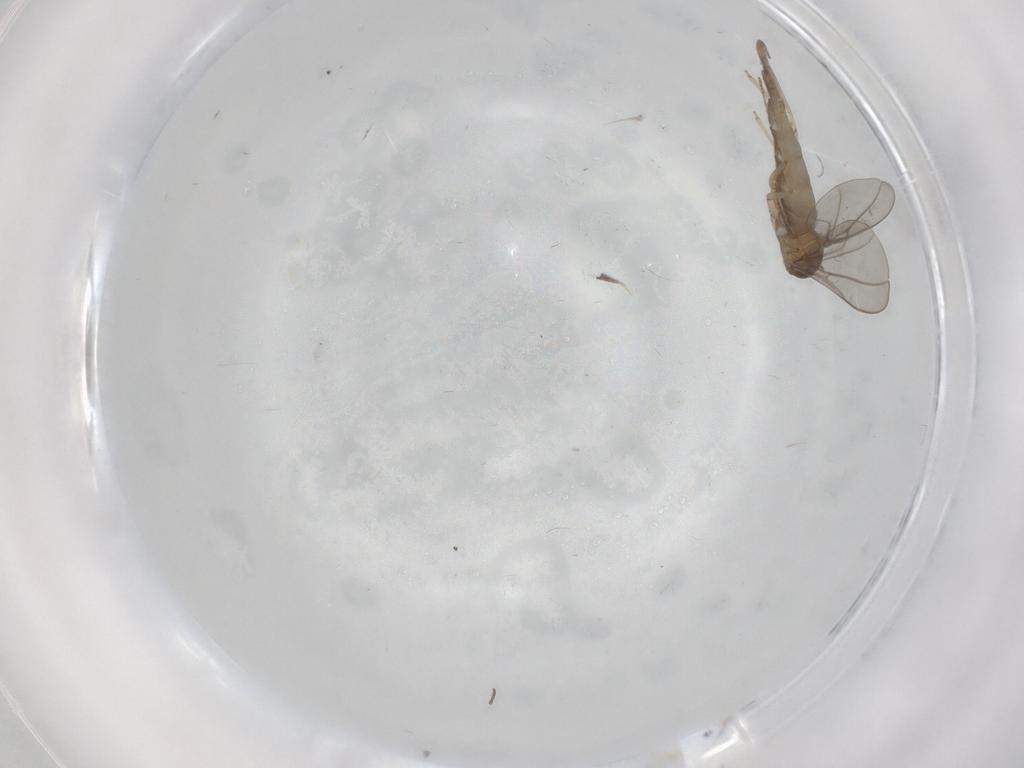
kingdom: Animalia
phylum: Arthropoda
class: Insecta
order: Diptera
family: Cecidomyiidae
